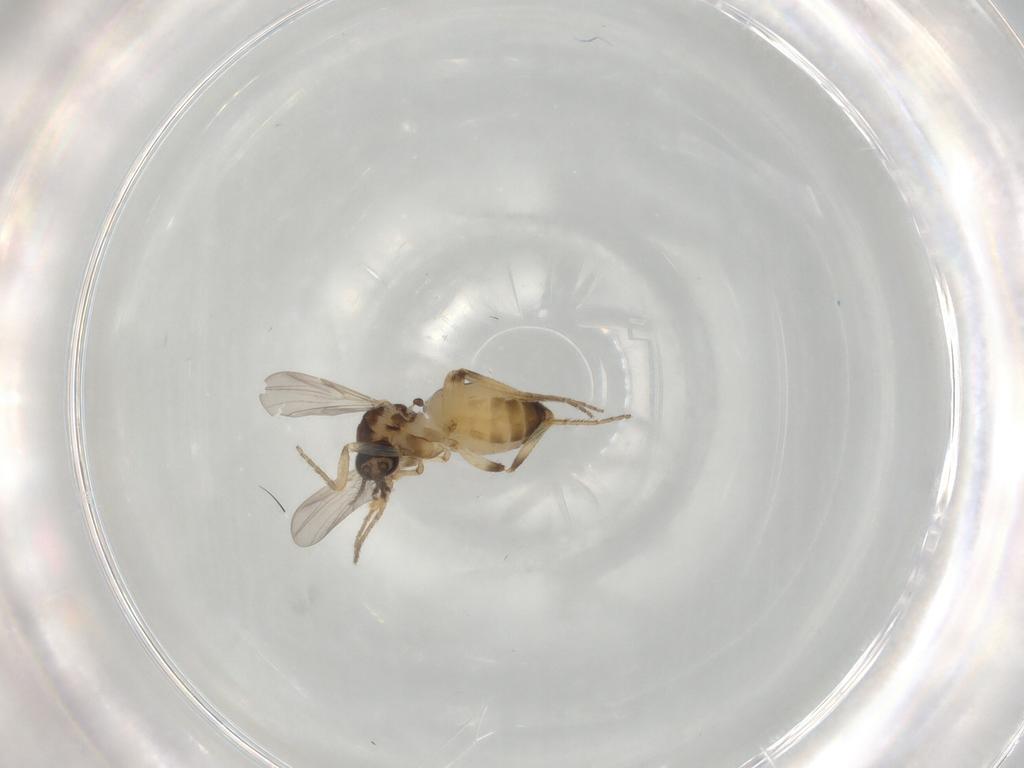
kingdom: Animalia
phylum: Arthropoda
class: Insecta
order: Diptera
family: Ceratopogonidae
